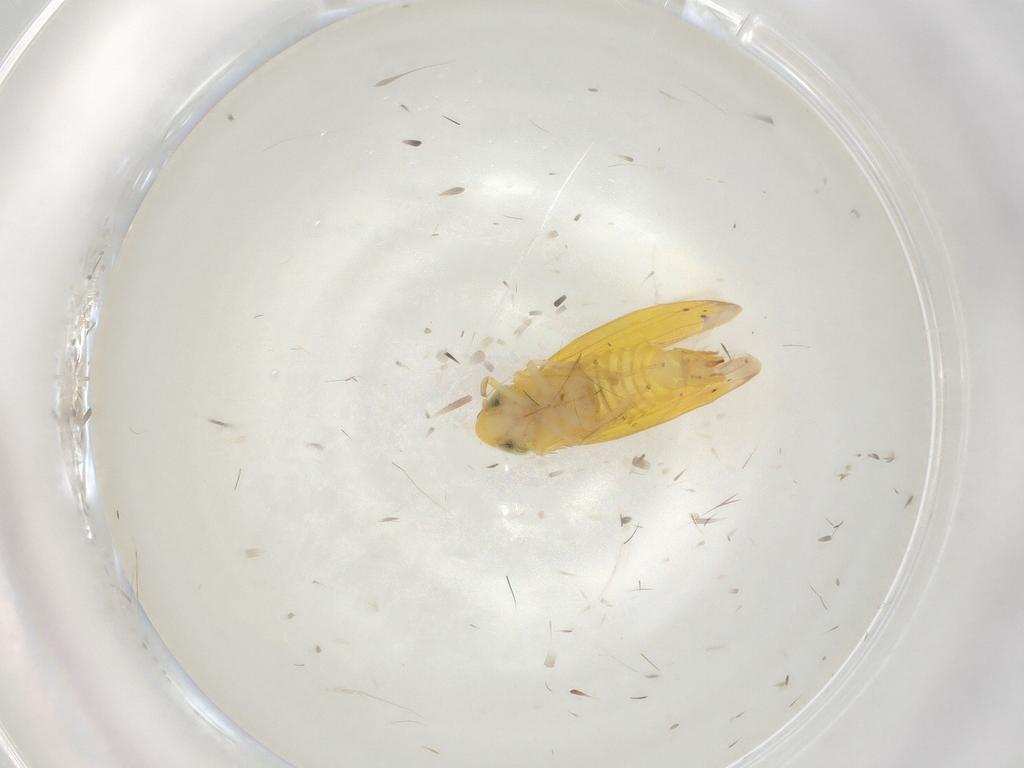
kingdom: Animalia
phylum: Arthropoda
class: Insecta
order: Hemiptera
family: Cicadellidae
